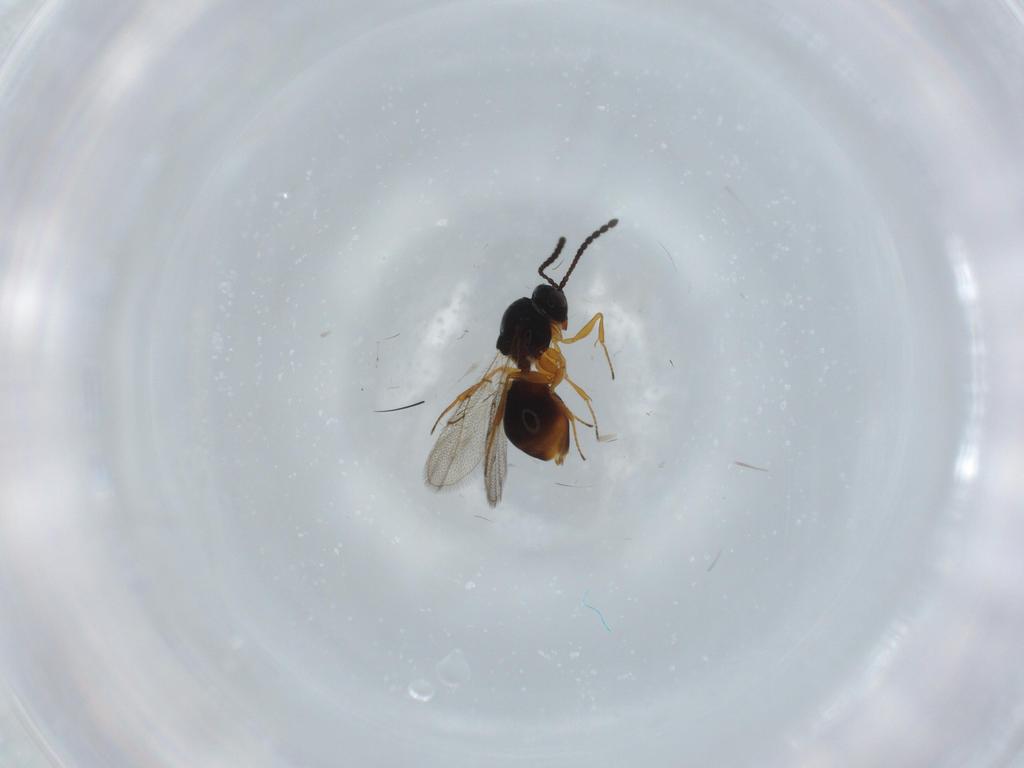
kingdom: Animalia
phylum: Arthropoda
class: Insecta
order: Hymenoptera
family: Figitidae
